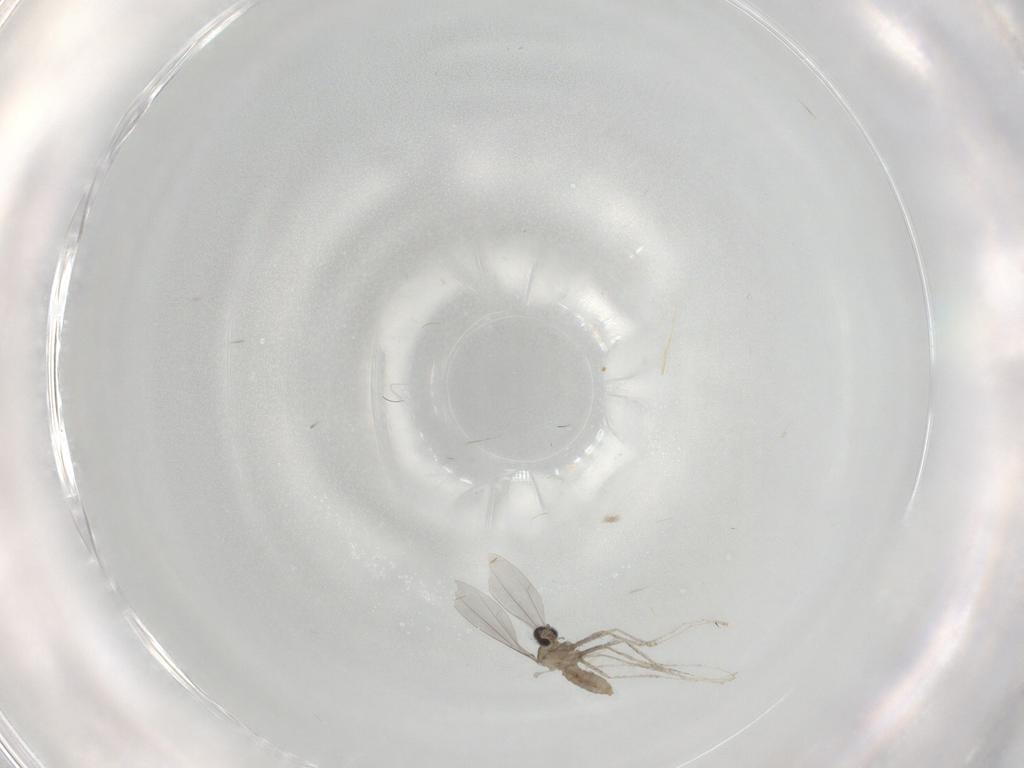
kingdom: Animalia
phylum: Arthropoda
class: Insecta
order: Diptera
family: Cecidomyiidae
